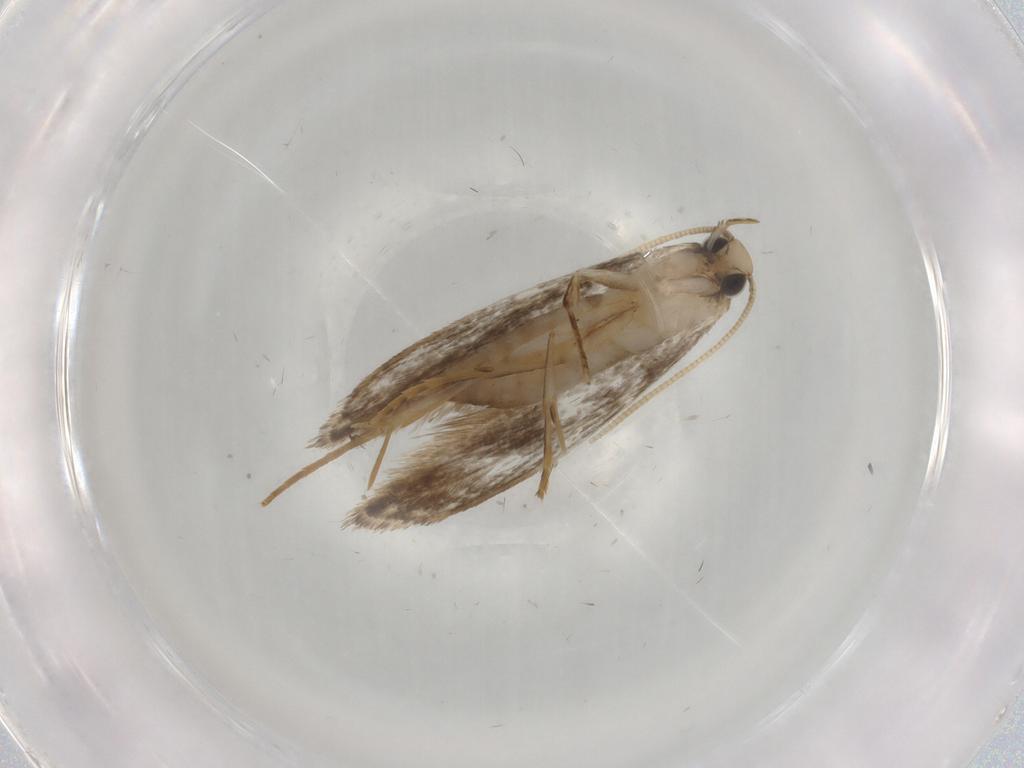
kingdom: Animalia
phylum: Arthropoda
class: Insecta
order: Lepidoptera
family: Tineidae
